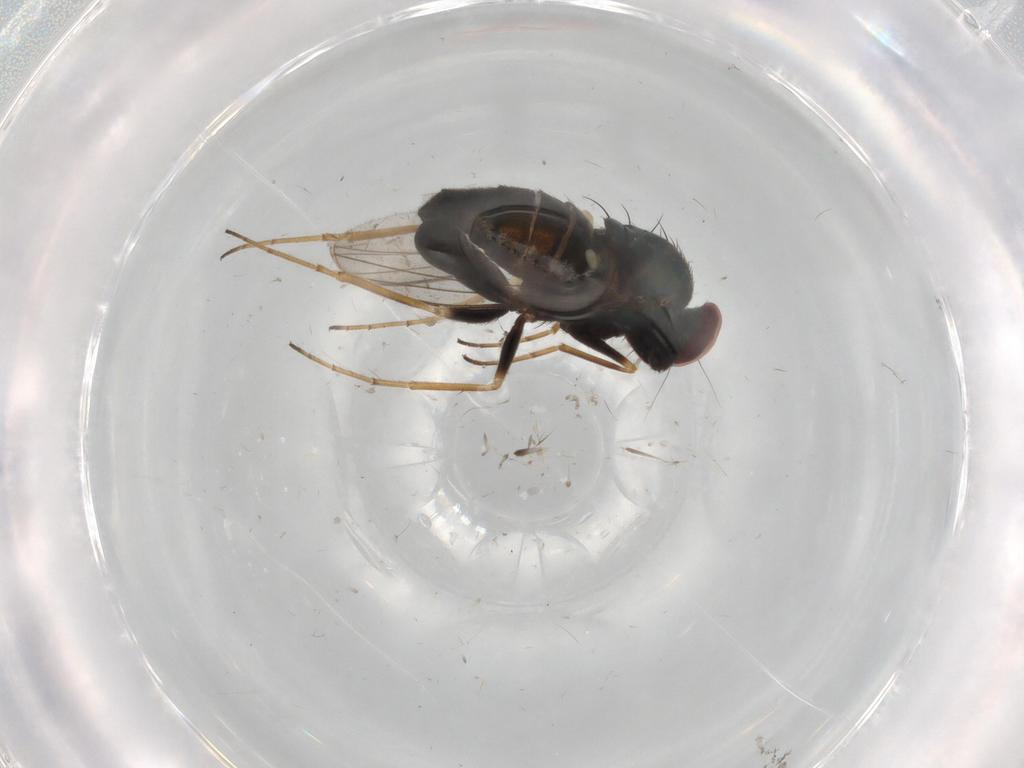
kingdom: Animalia
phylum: Arthropoda
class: Insecta
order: Diptera
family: Dolichopodidae
